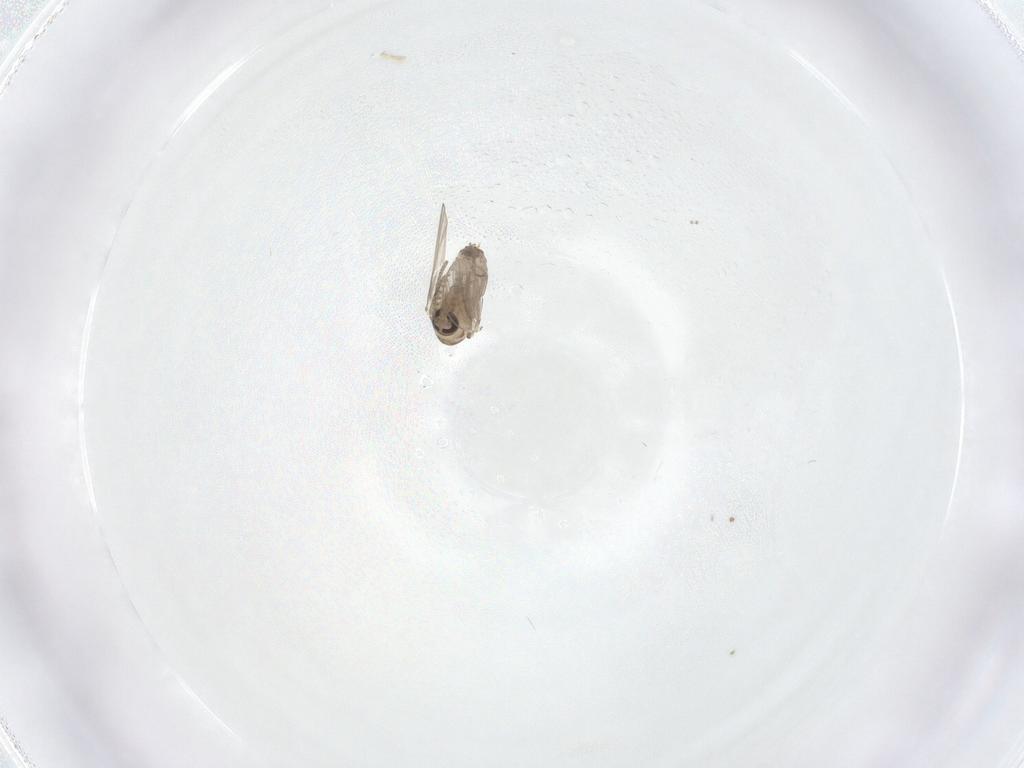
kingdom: Animalia
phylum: Arthropoda
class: Insecta
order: Diptera
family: Psychodidae
